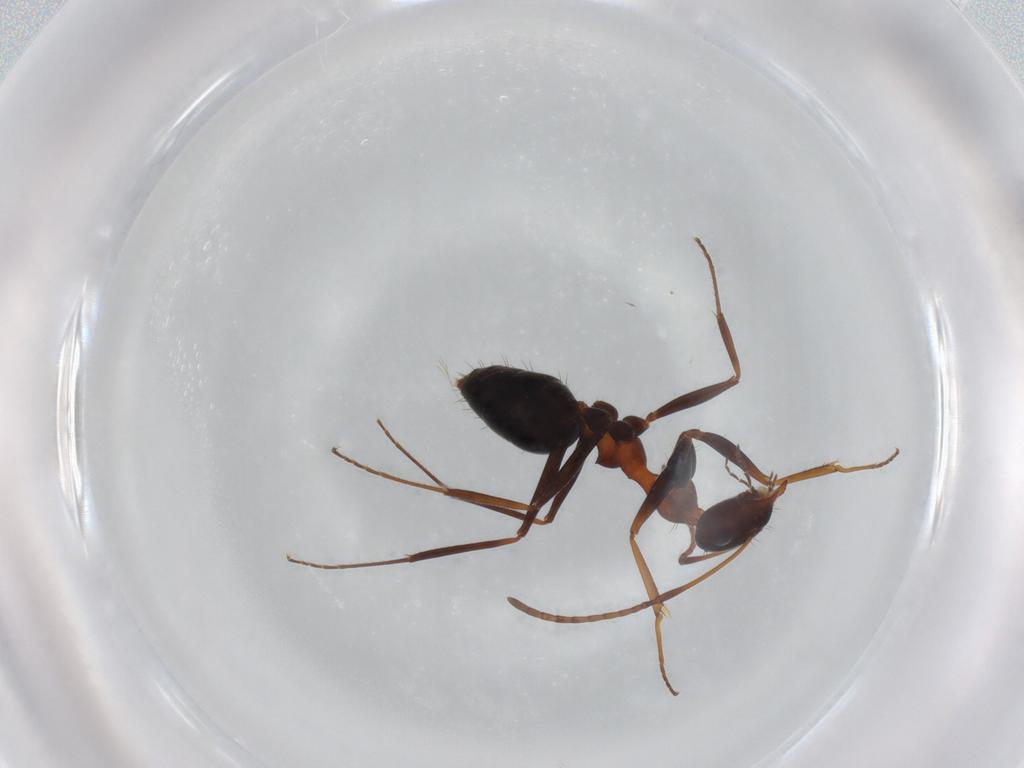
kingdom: Animalia
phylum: Arthropoda
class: Insecta
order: Hymenoptera
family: Formicidae
